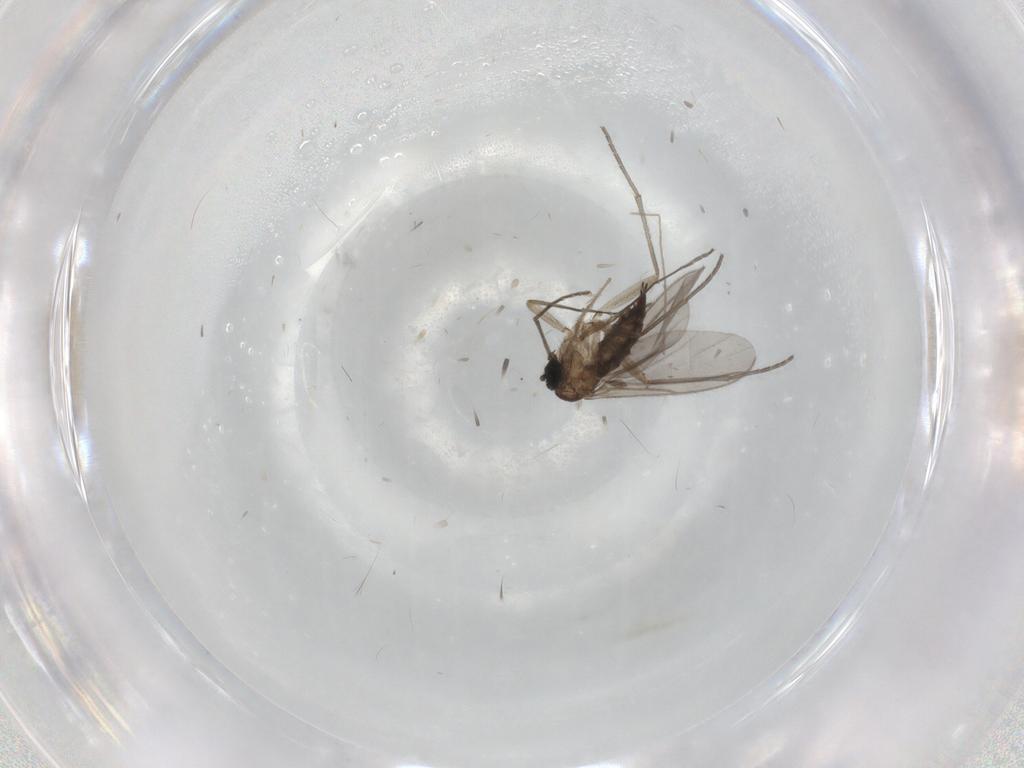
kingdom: Animalia
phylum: Arthropoda
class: Insecta
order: Diptera
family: Sciaridae
